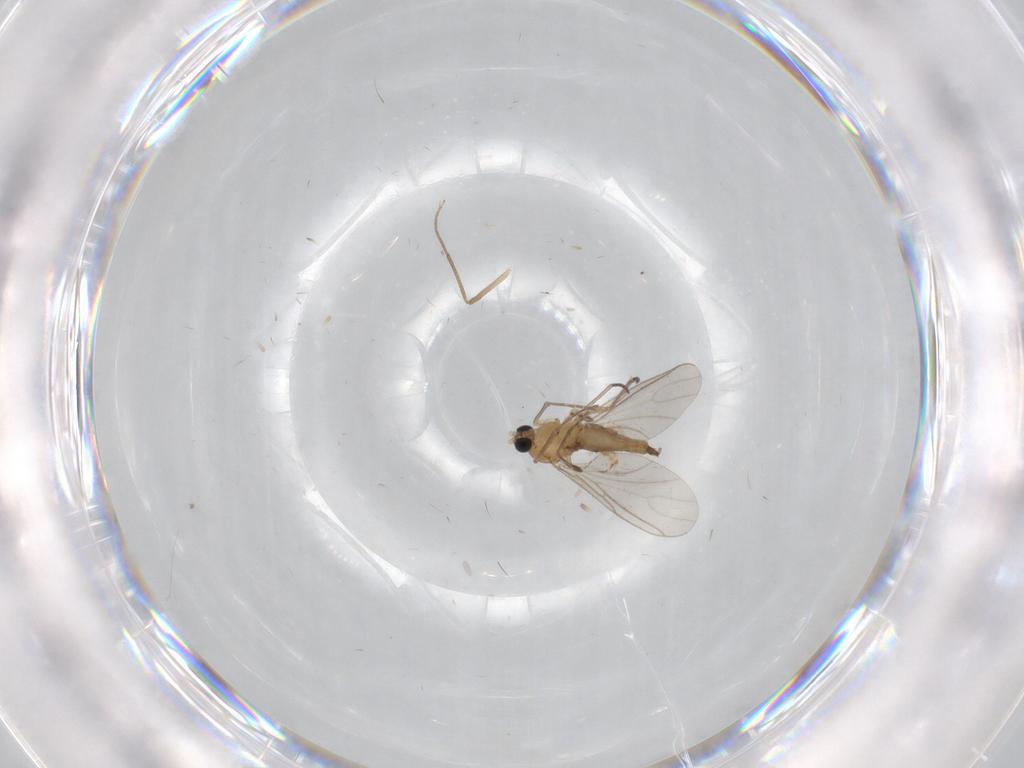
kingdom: Animalia
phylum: Arthropoda
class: Insecta
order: Diptera
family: Sciaridae
